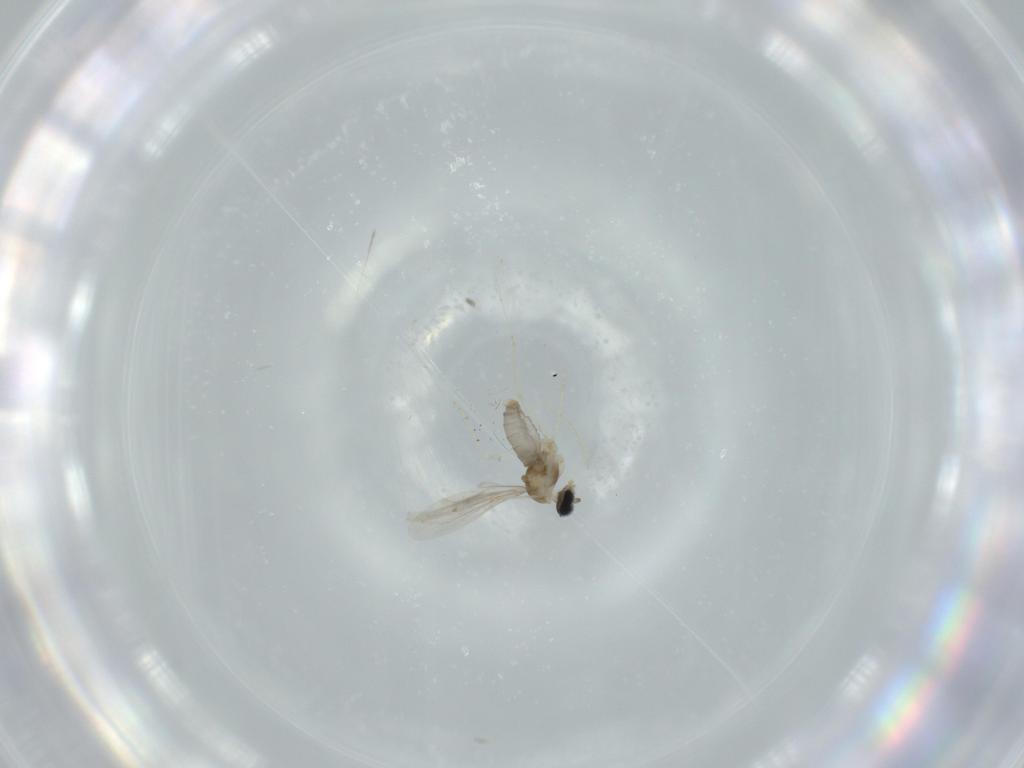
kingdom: Animalia
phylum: Arthropoda
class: Insecta
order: Diptera
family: Cecidomyiidae
